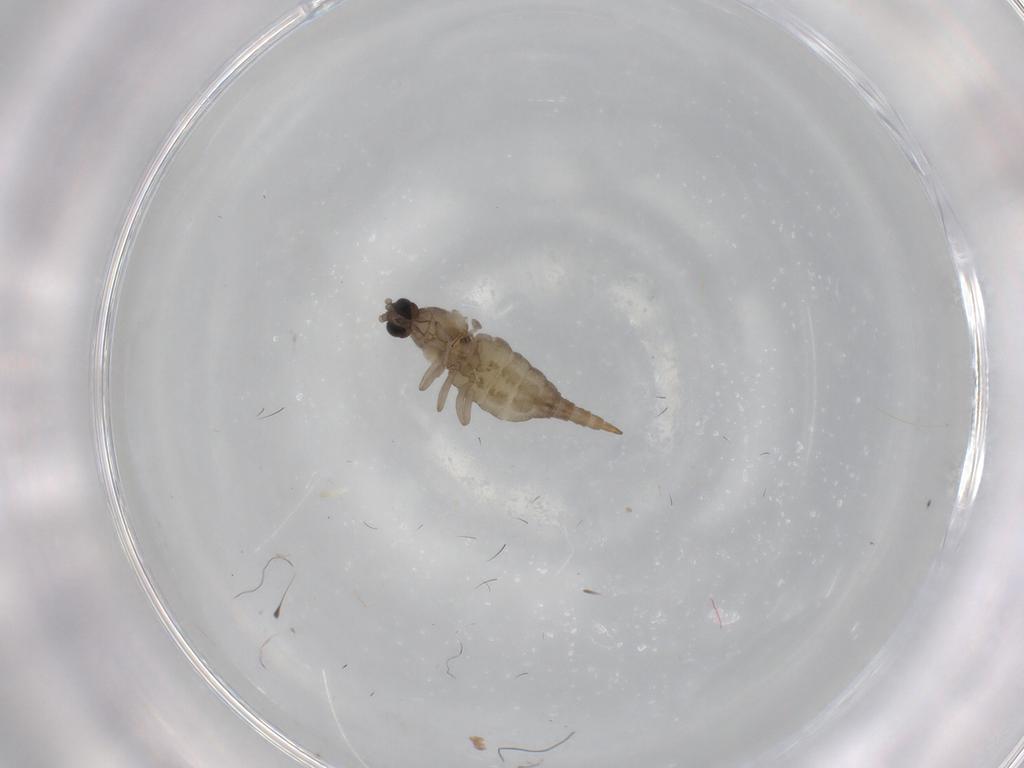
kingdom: Animalia
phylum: Arthropoda
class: Insecta
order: Diptera
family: Cecidomyiidae
